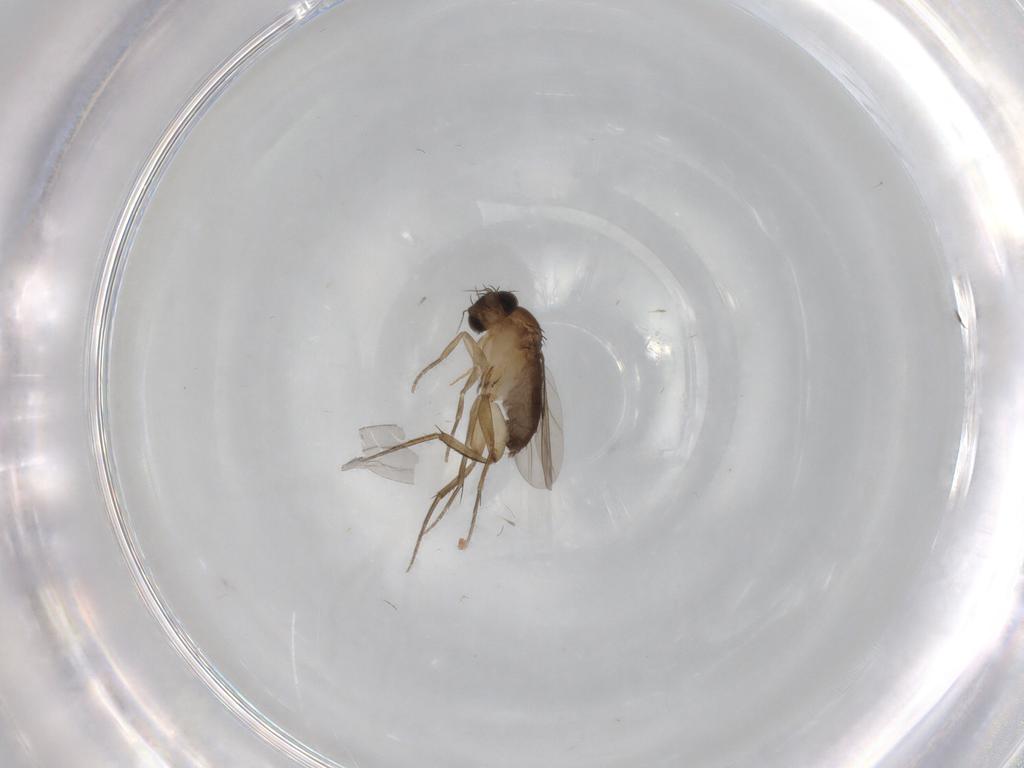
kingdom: Animalia
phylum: Arthropoda
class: Insecta
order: Diptera
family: Phoridae
